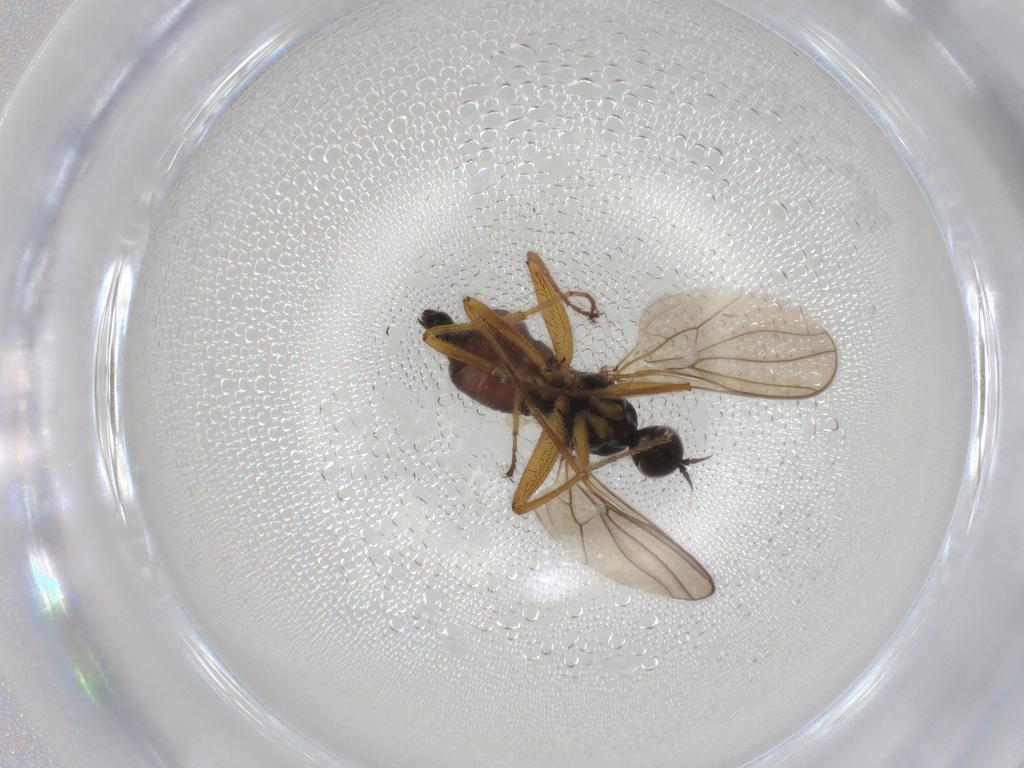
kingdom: Animalia
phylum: Arthropoda
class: Insecta
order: Diptera
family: Hybotidae
